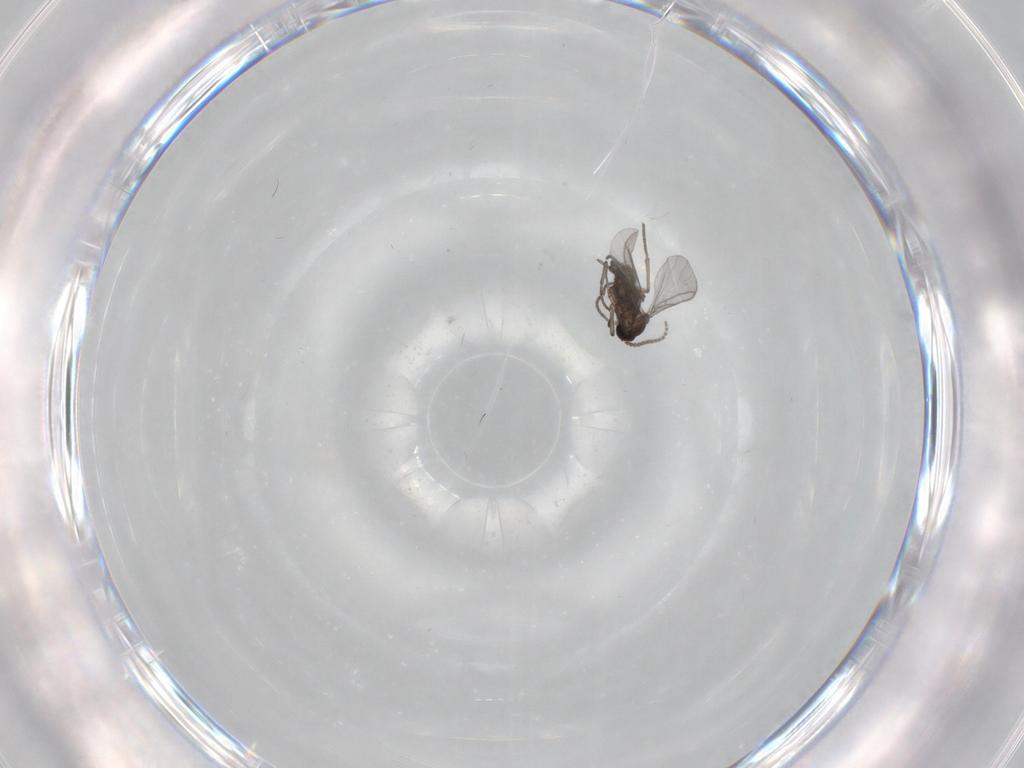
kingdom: Animalia
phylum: Arthropoda
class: Insecta
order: Diptera
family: Chironomidae
